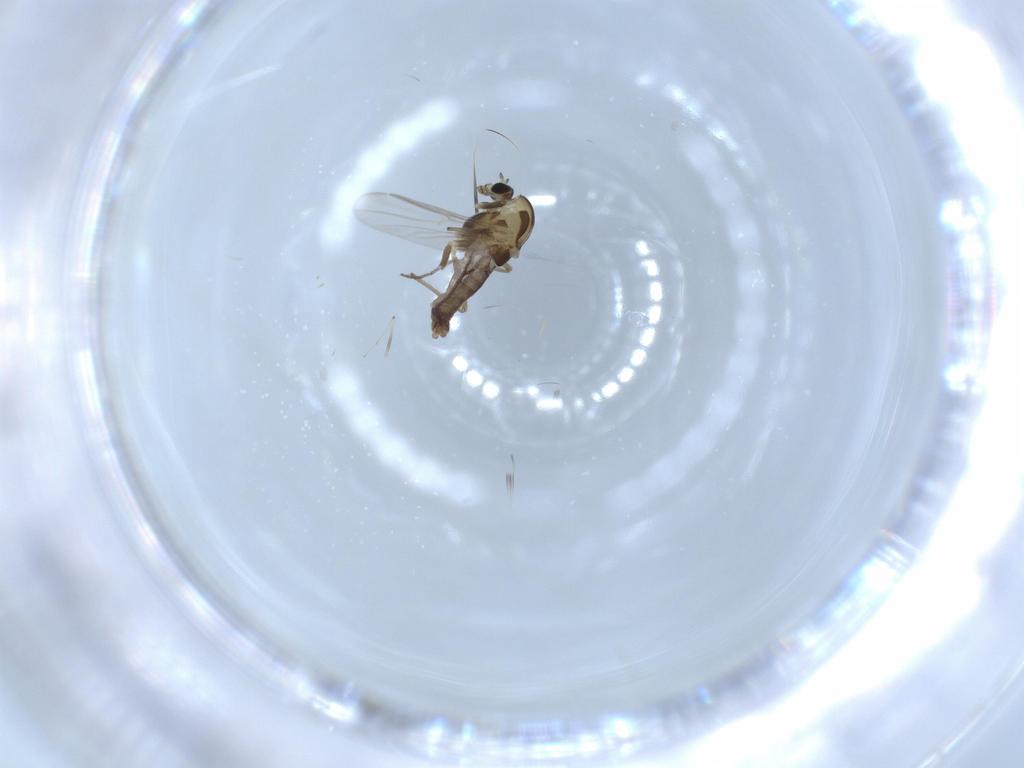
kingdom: Animalia
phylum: Arthropoda
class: Insecta
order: Diptera
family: Chironomidae
